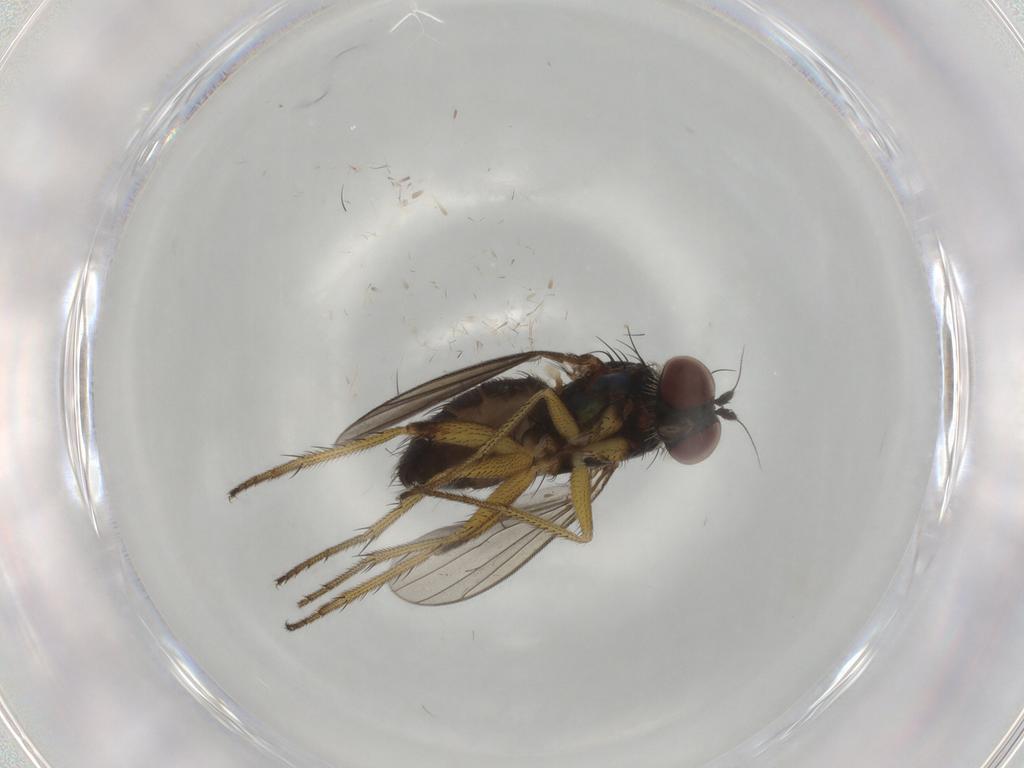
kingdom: Animalia
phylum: Arthropoda
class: Insecta
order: Diptera
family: Dolichopodidae
